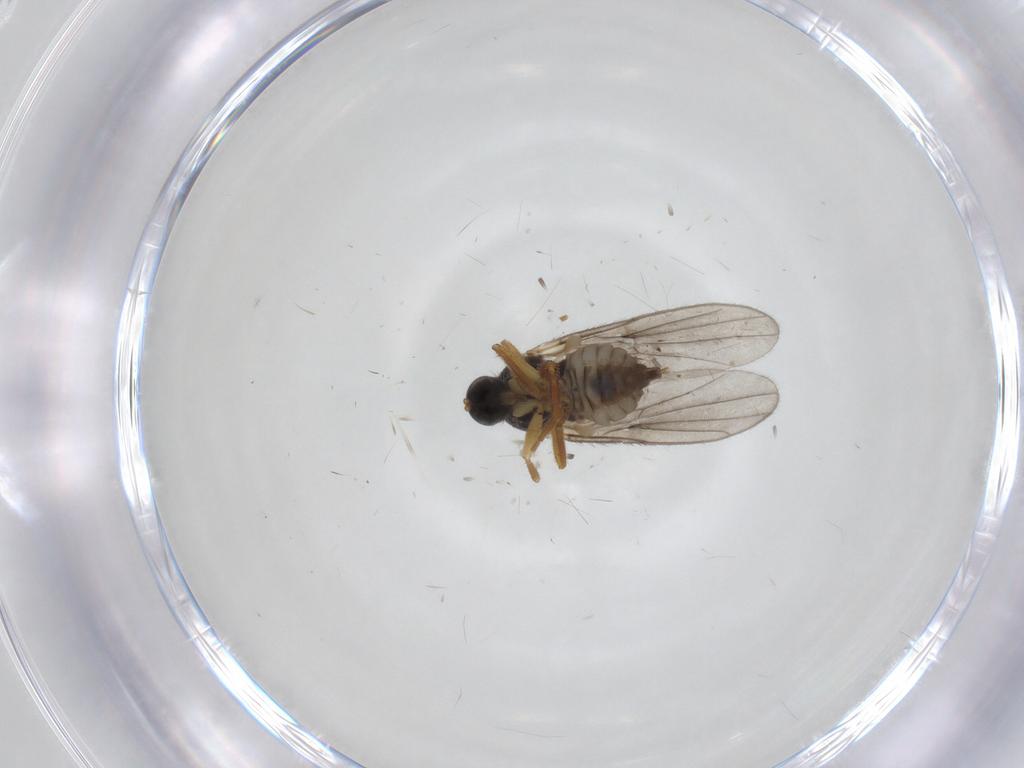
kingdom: Animalia
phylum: Arthropoda
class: Insecta
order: Diptera
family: Hybotidae
